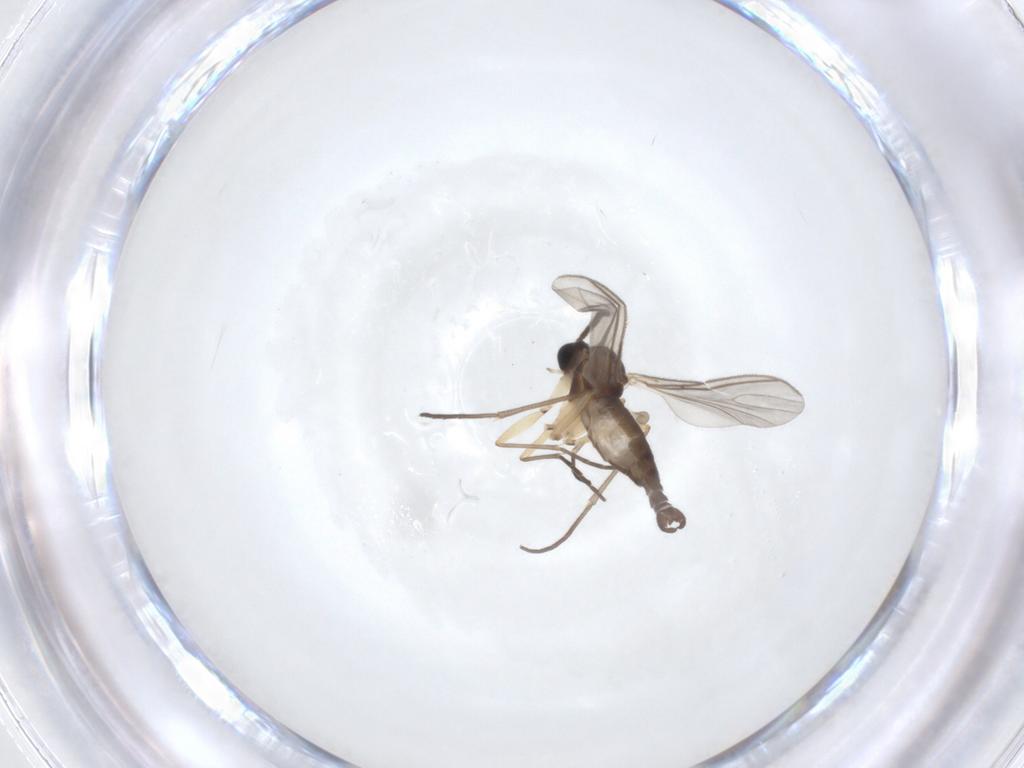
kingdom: Animalia
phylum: Arthropoda
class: Insecta
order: Diptera
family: Sciaridae
